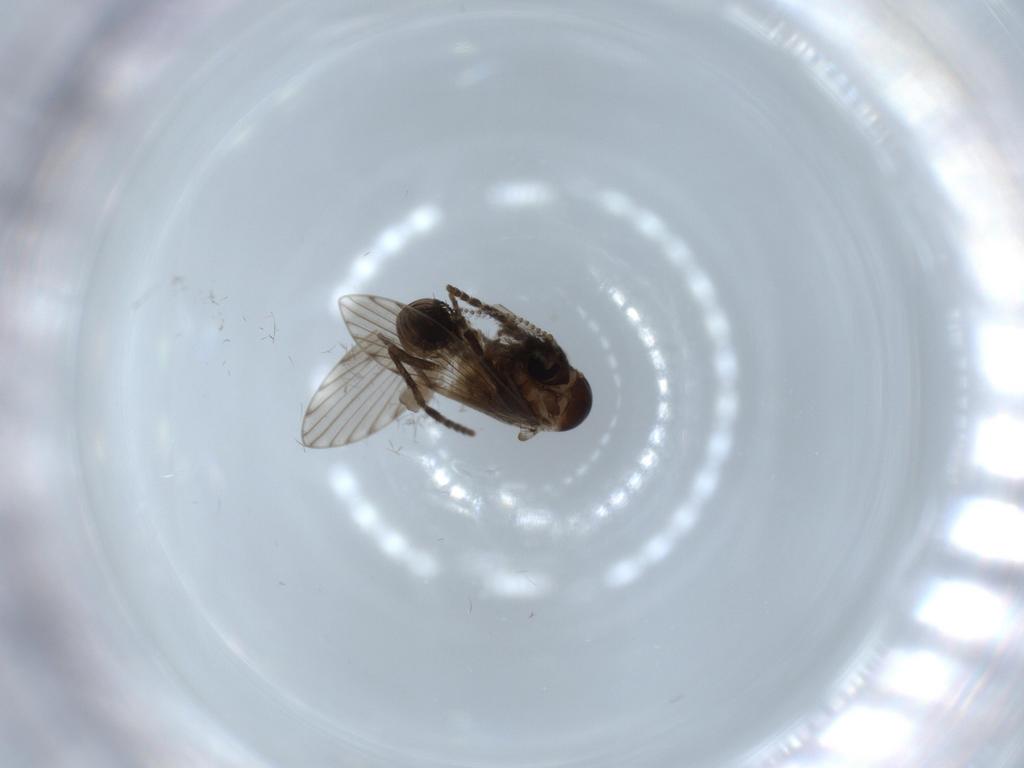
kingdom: Animalia
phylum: Arthropoda
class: Insecta
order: Diptera
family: Psychodidae
